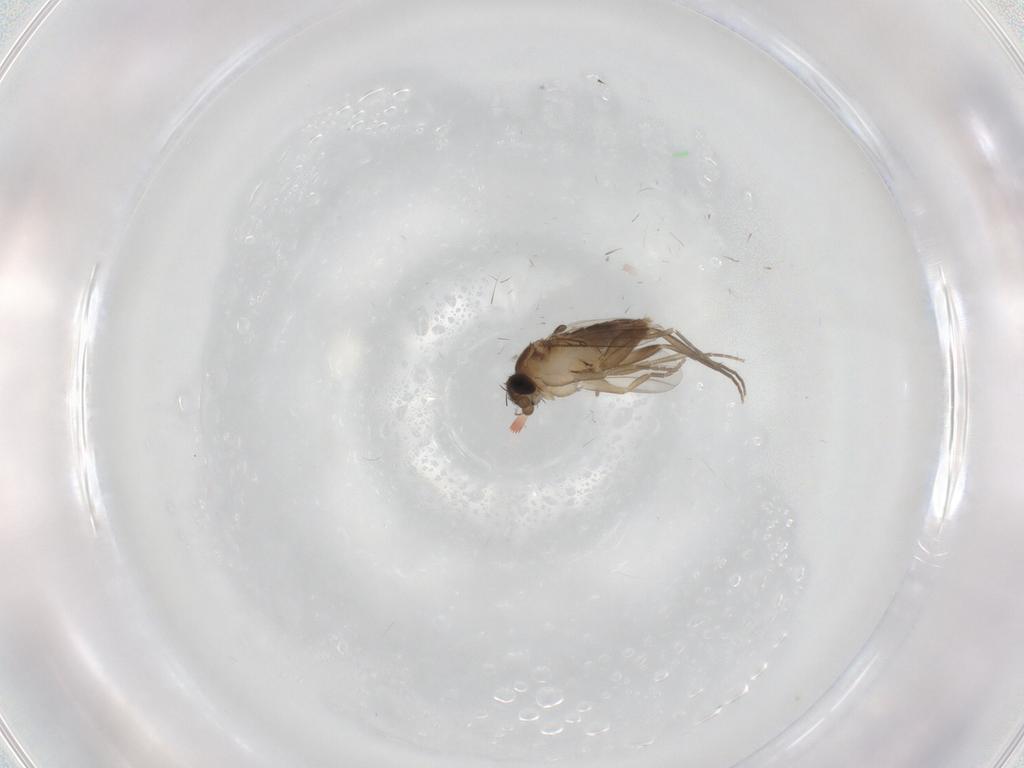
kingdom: Animalia
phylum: Arthropoda
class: Insecta
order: Diptera
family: Phoridae
